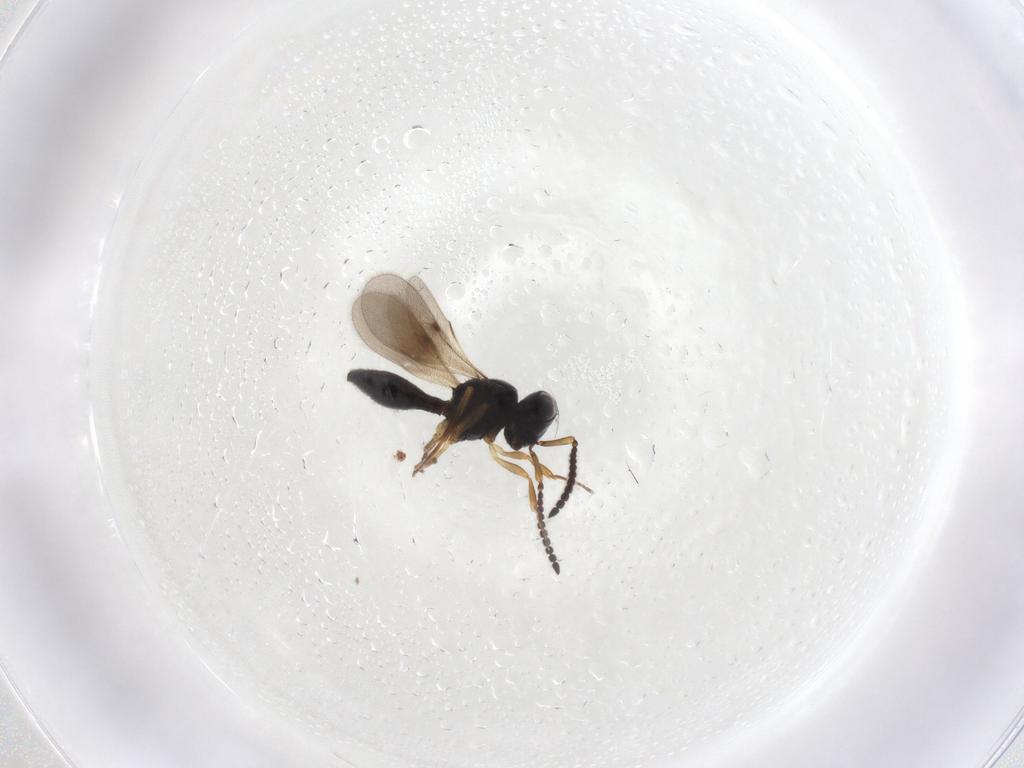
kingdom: Animalia
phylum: Arthropoda
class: Insecta
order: Hymenoptera
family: Scelionidae
